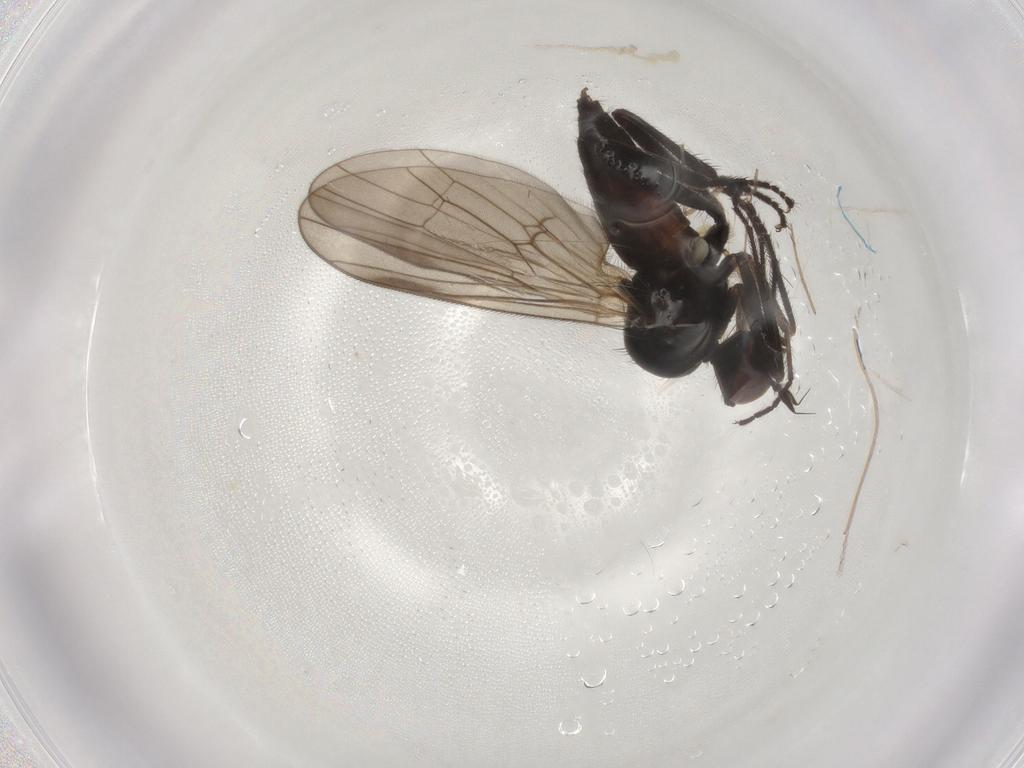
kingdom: Animalia
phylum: Arthropoda
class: Insecta
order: Diptera
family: Hybotidae
